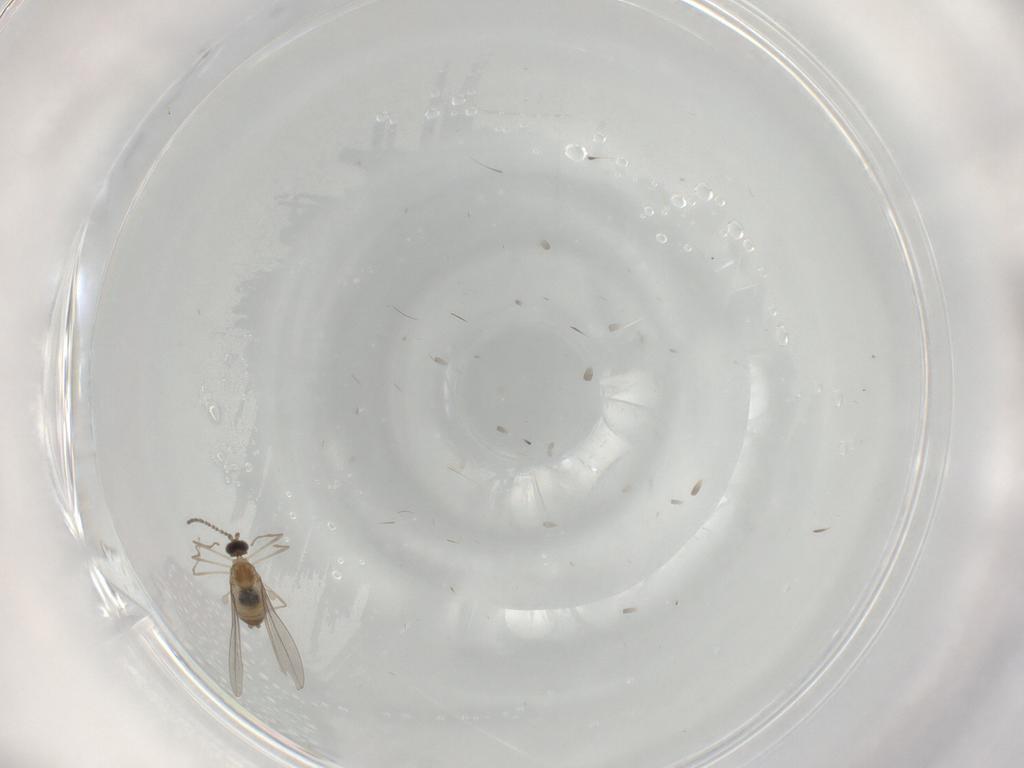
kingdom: Animalia
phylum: Arthropoda
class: Insecta
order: Diptera
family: Cecidomyiidae
